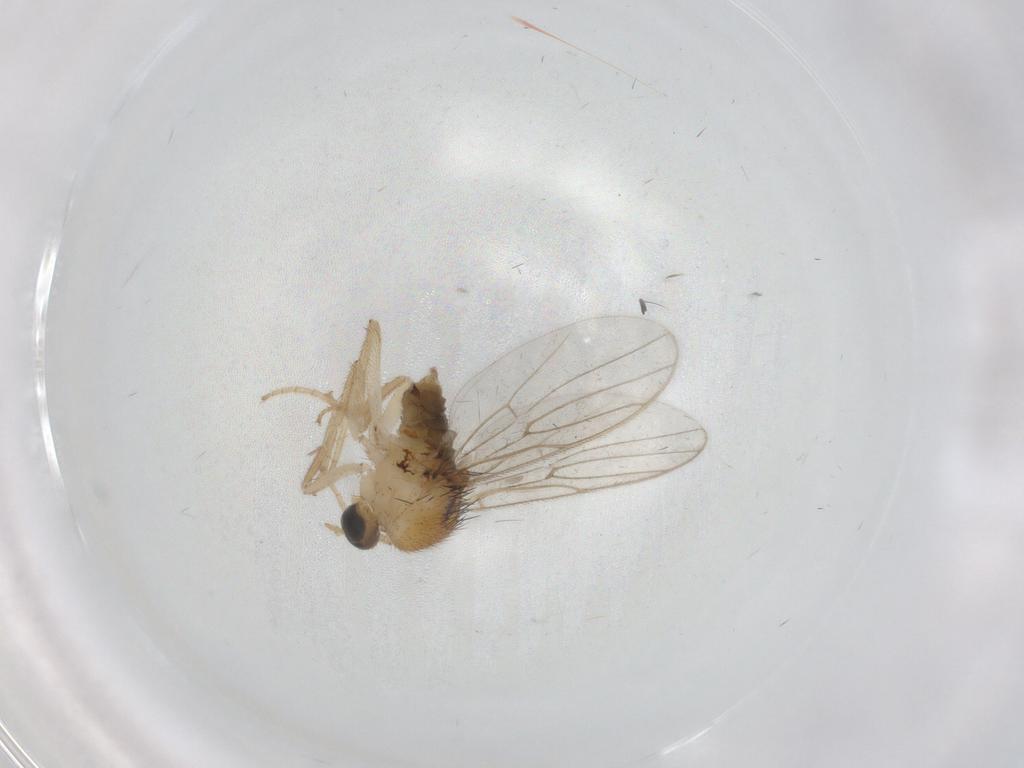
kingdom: Animalia
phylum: Arthropoda
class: Insecta
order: Diptera
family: Hybotidae
